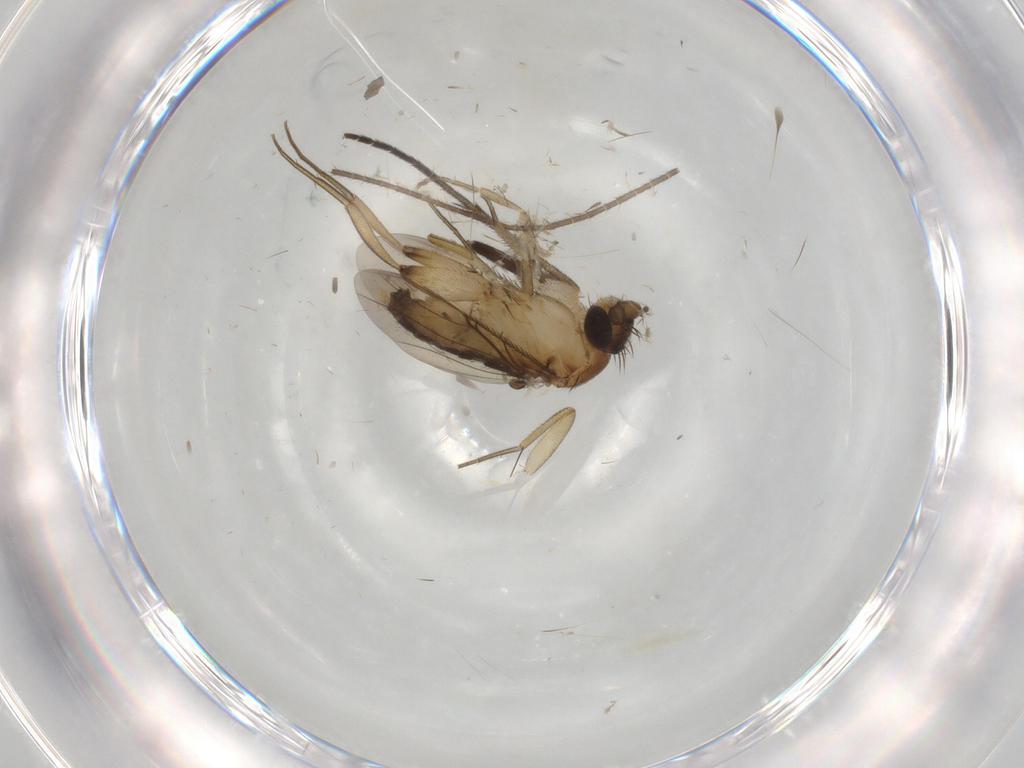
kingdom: Animalia
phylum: Arthropoda
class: Insecta
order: Diptera
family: Phoridae
